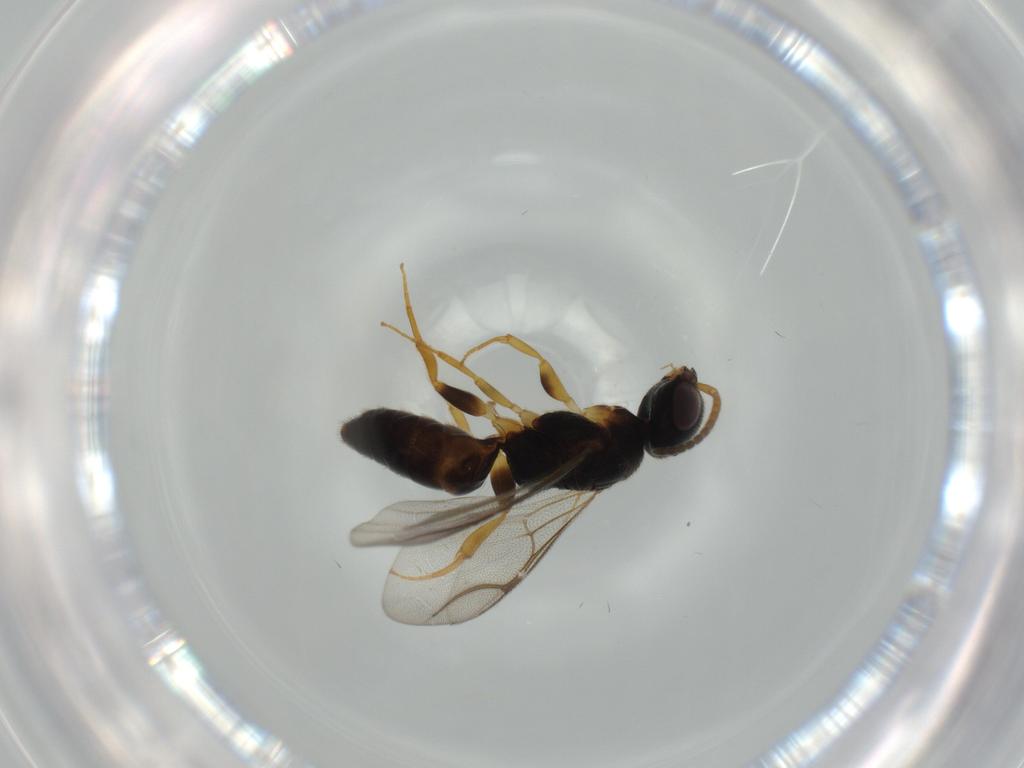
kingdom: Animalia
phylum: Arthropoda
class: Insecta
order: Hymenoptera
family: Bethylidae
